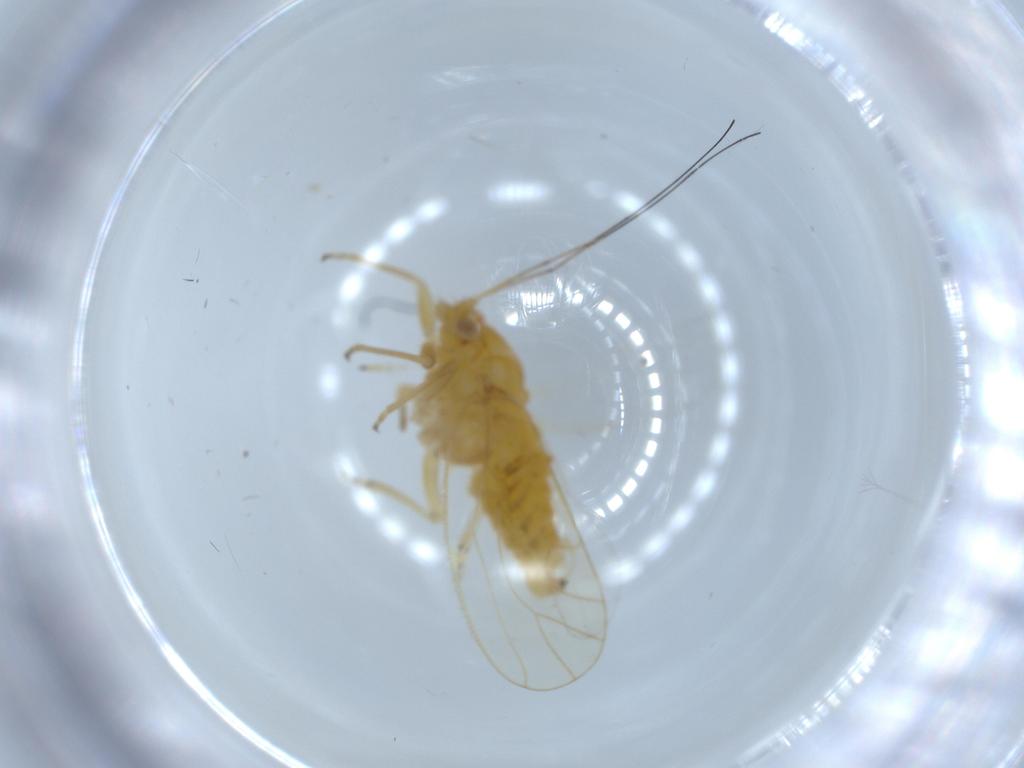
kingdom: Animalia
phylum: Arthropoda
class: Insecta
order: Hemiptera
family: Psyllidae
